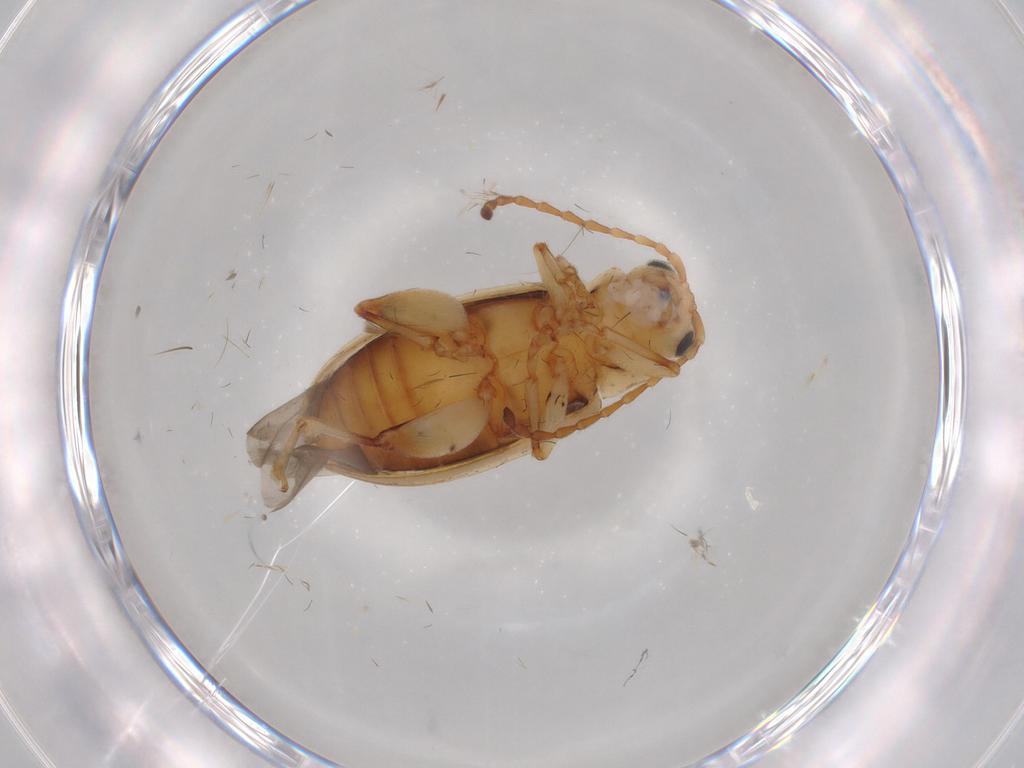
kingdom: Animalia
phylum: Arthropoda
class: Insecta
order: Coleoptera
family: Chrysomelidae
